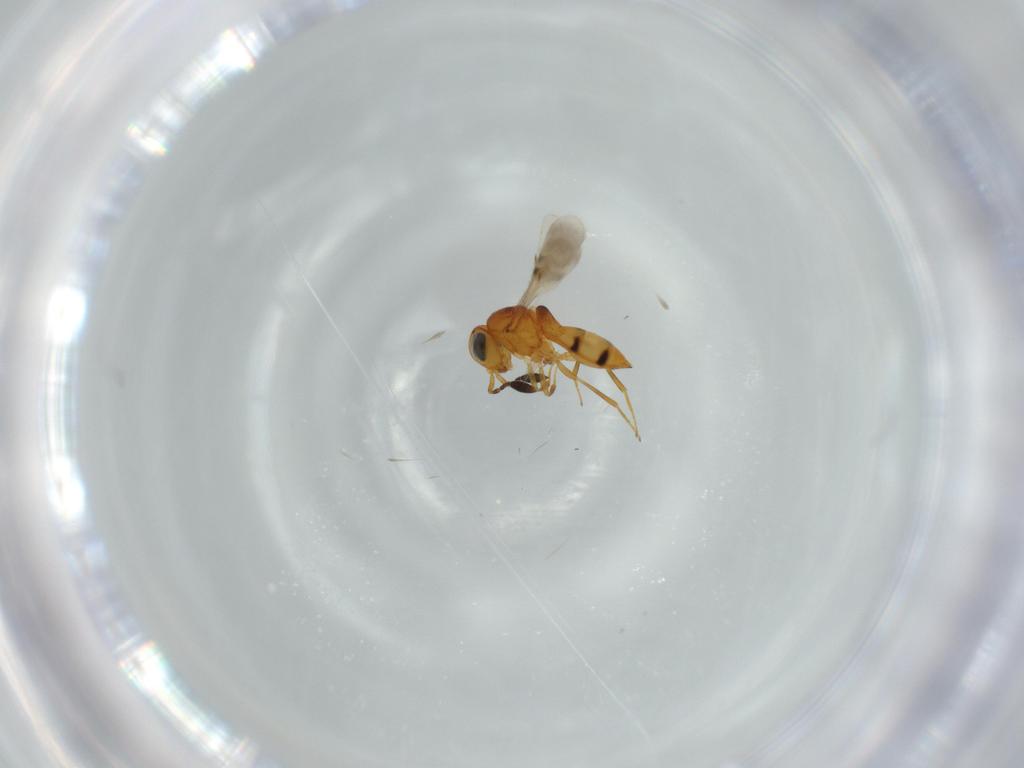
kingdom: Animalia
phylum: Arthropoda
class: Insecta
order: Hymenoptera
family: Scelionidae
